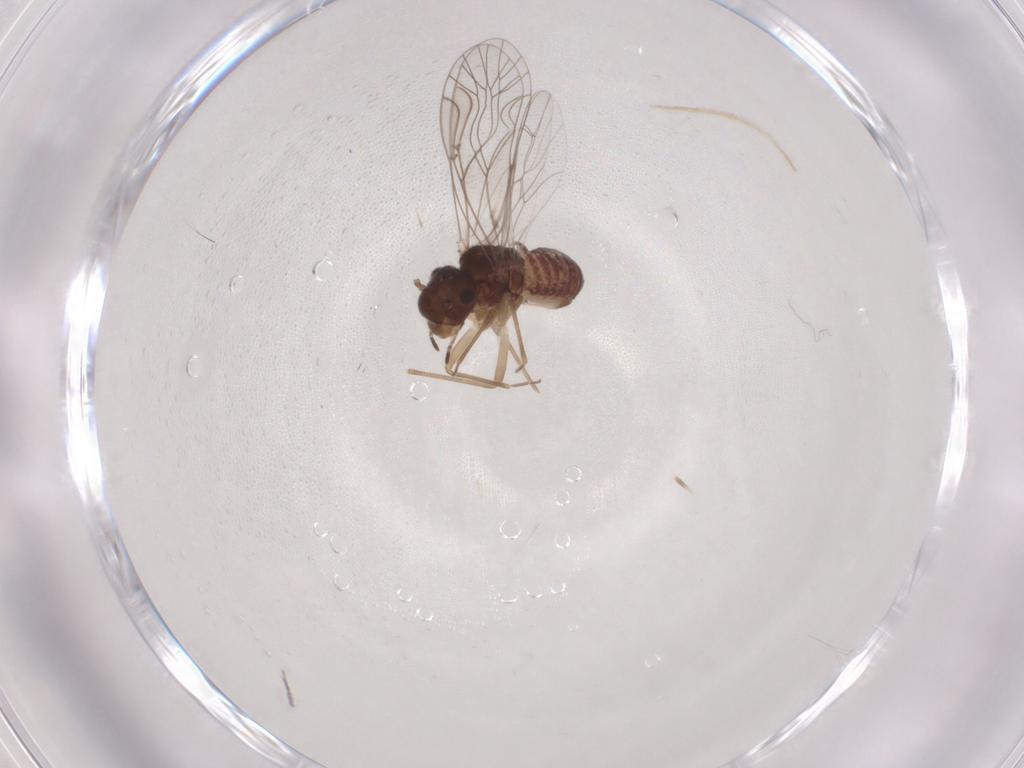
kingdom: Animalia
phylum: Arthropoda
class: Insecta
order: Psocodea
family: Lachesillidae
